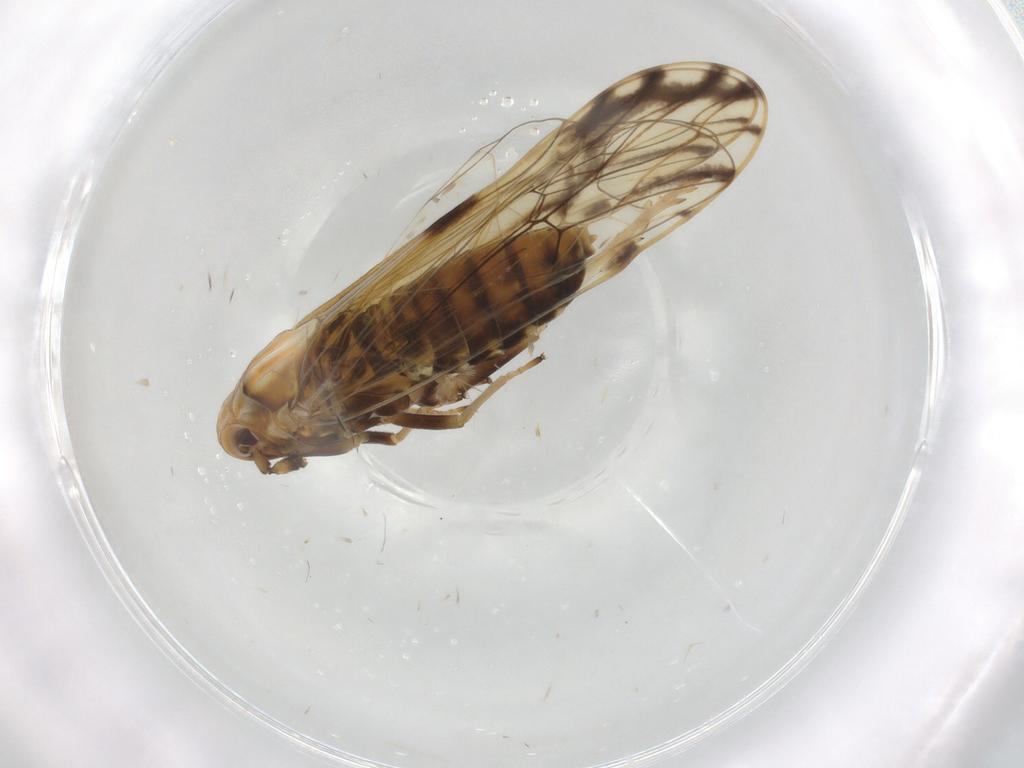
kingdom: Animalia
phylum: Arthropoda
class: Insecta
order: Hemiptera
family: Delphacidae
